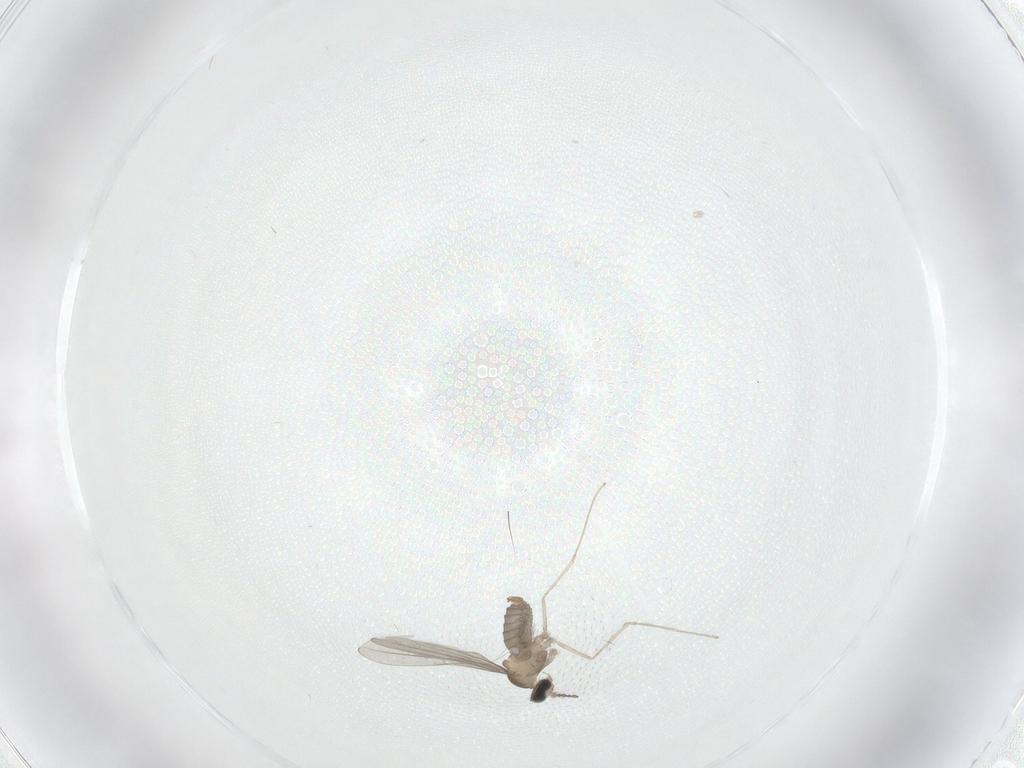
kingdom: Animalia
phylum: Arthropoda
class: Insecta
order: Diptera
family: Cecidomyiidae
